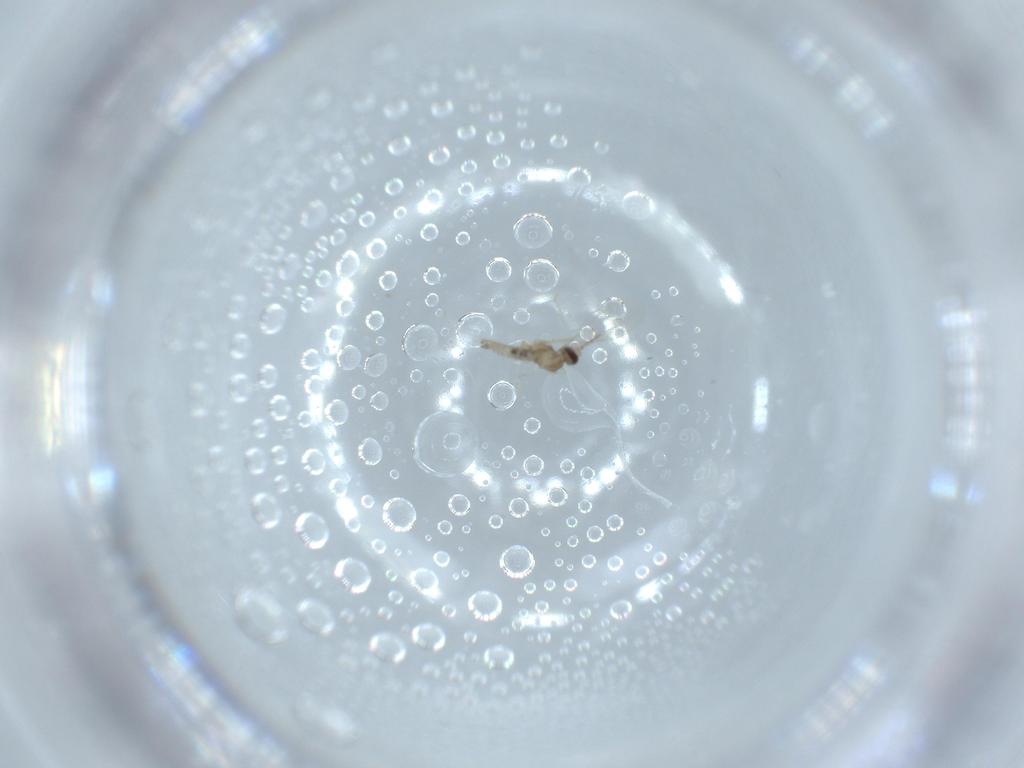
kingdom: Animalia
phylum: Arthropoda
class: Insecta
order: Diptera
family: Cecidomyiidae
